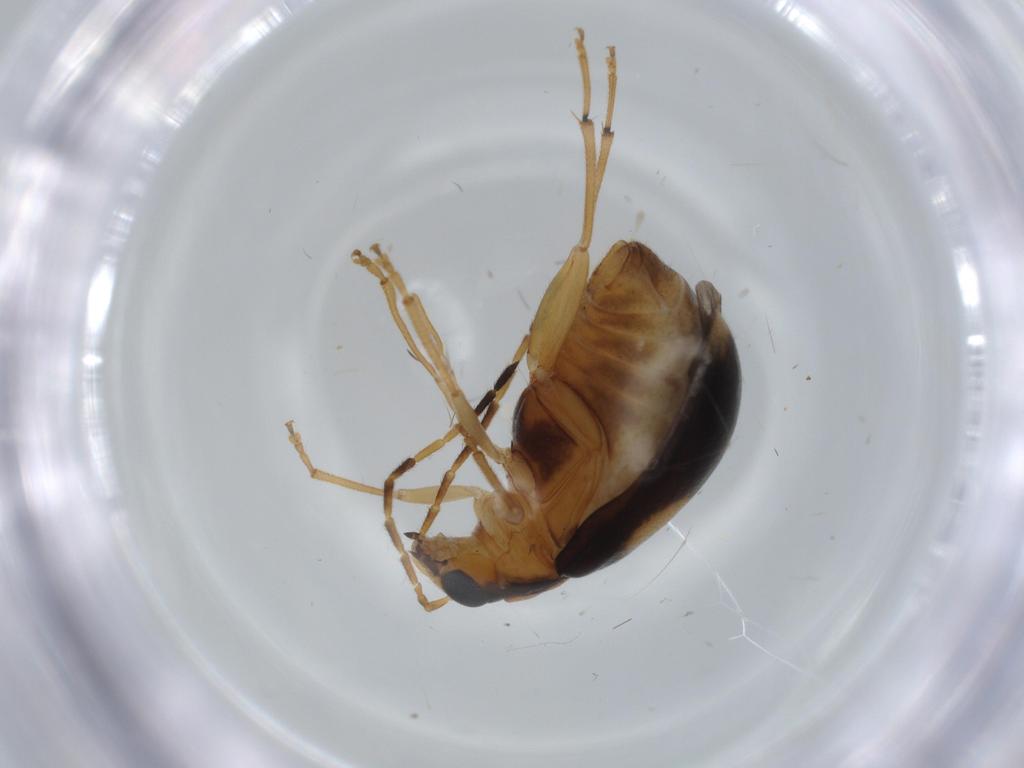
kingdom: Animalia
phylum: Arthropoda
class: Insecta
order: Coleoptera
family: Chrysomelidae
